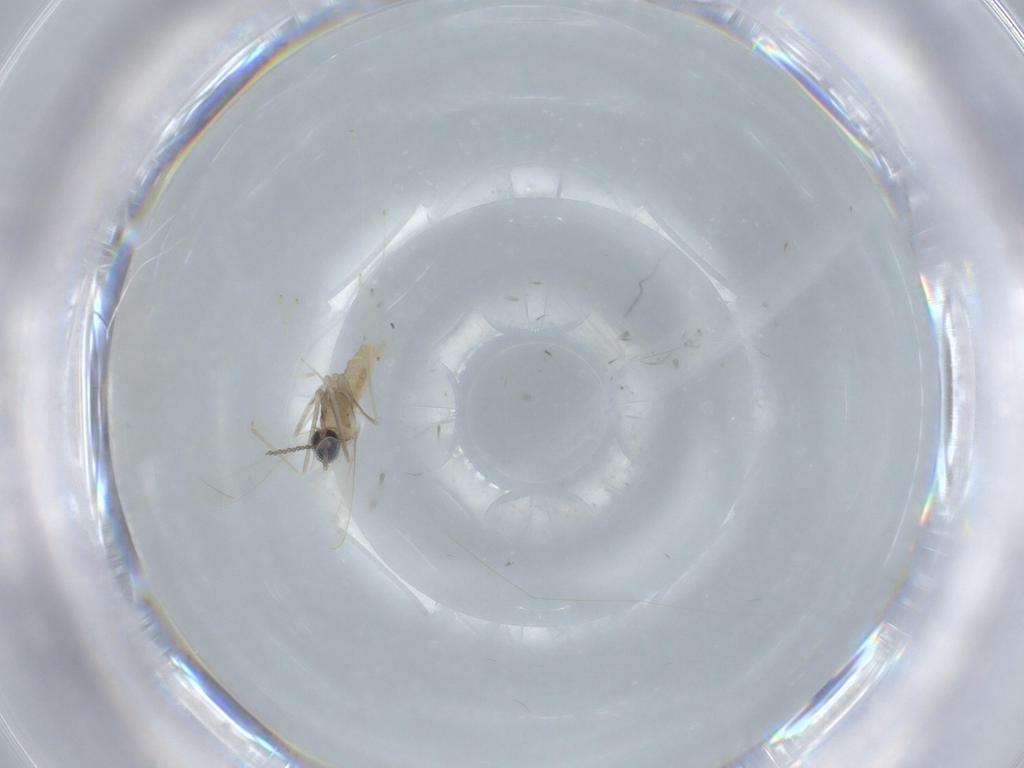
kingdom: Animalia
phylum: Arthropoda
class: Insecta
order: Diptera
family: Cecidomyiidae
